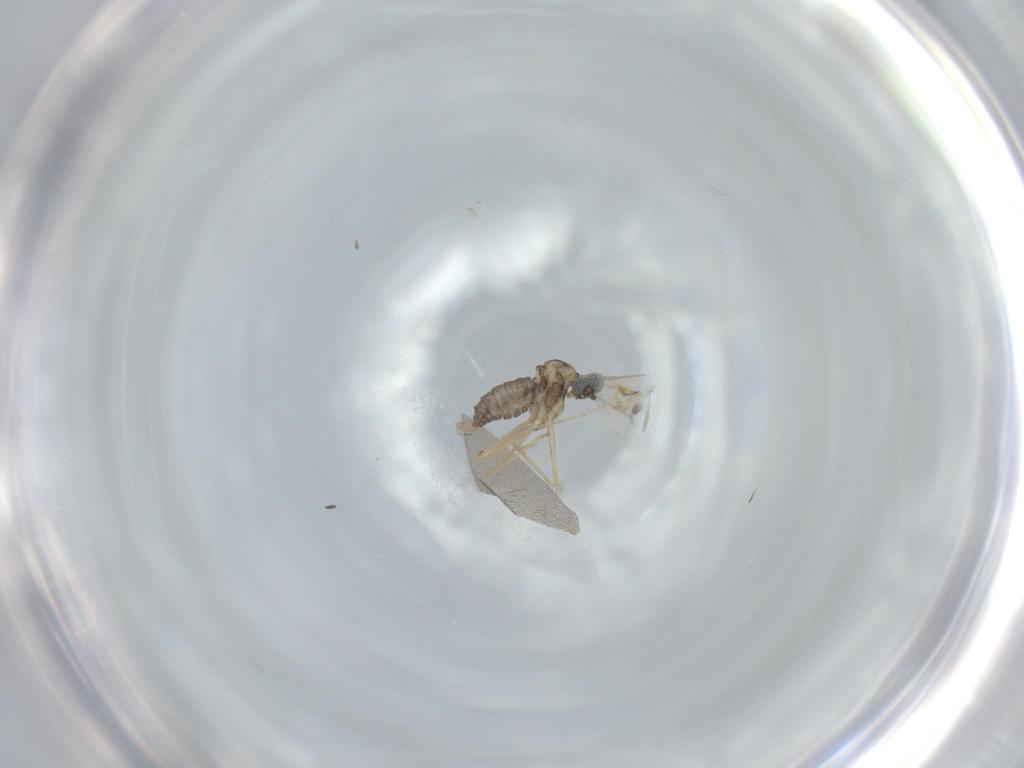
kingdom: Animalia
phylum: Arthropoda
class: Insecta
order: Diptera
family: Cecidomyiidae
